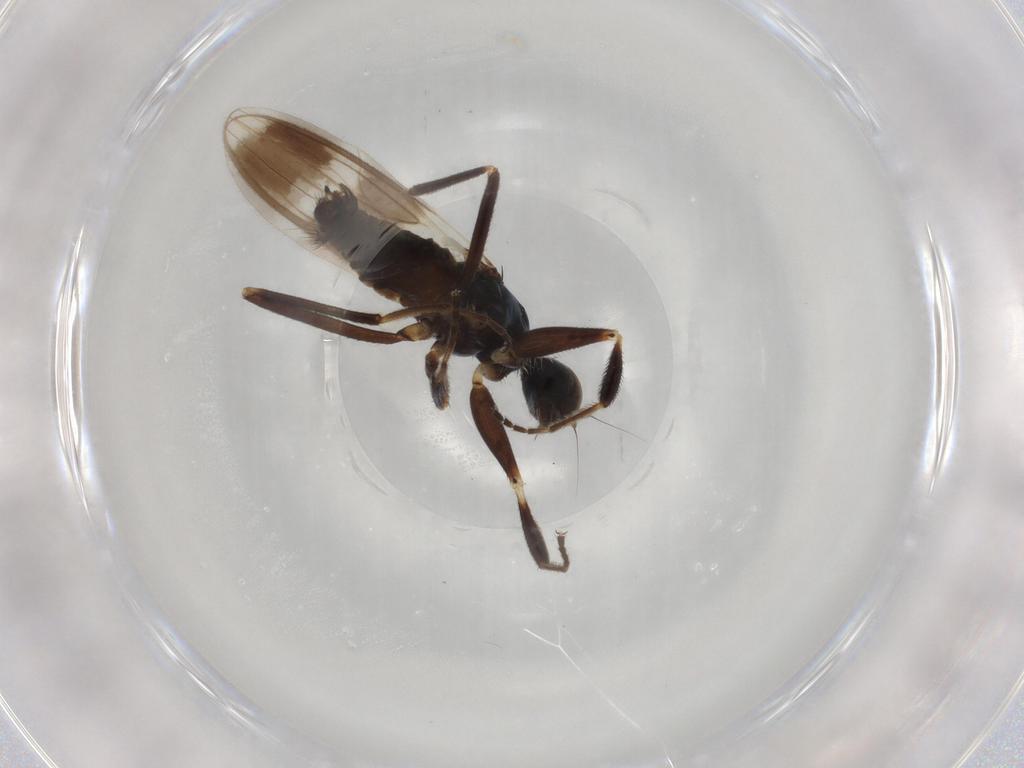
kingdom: Animalia
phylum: Arthropoda
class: Insecta
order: Diptera
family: Hybotidae
